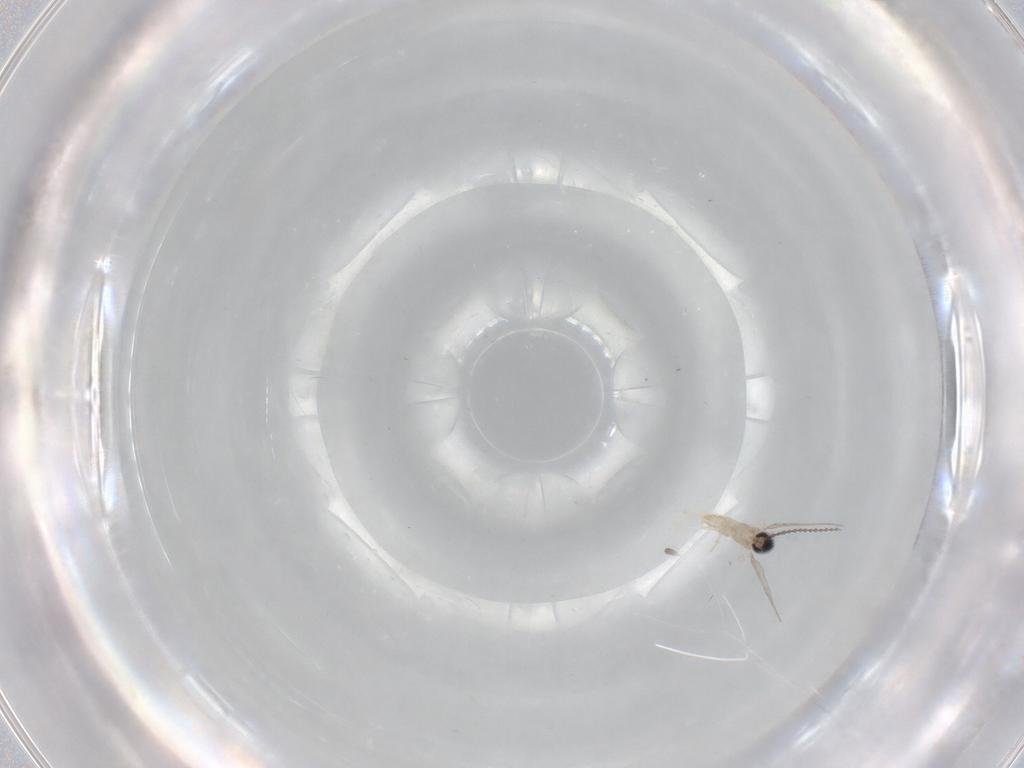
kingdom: Animalia
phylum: Arthropoda
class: Insecta
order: Diptera
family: Cecidomyiidae
